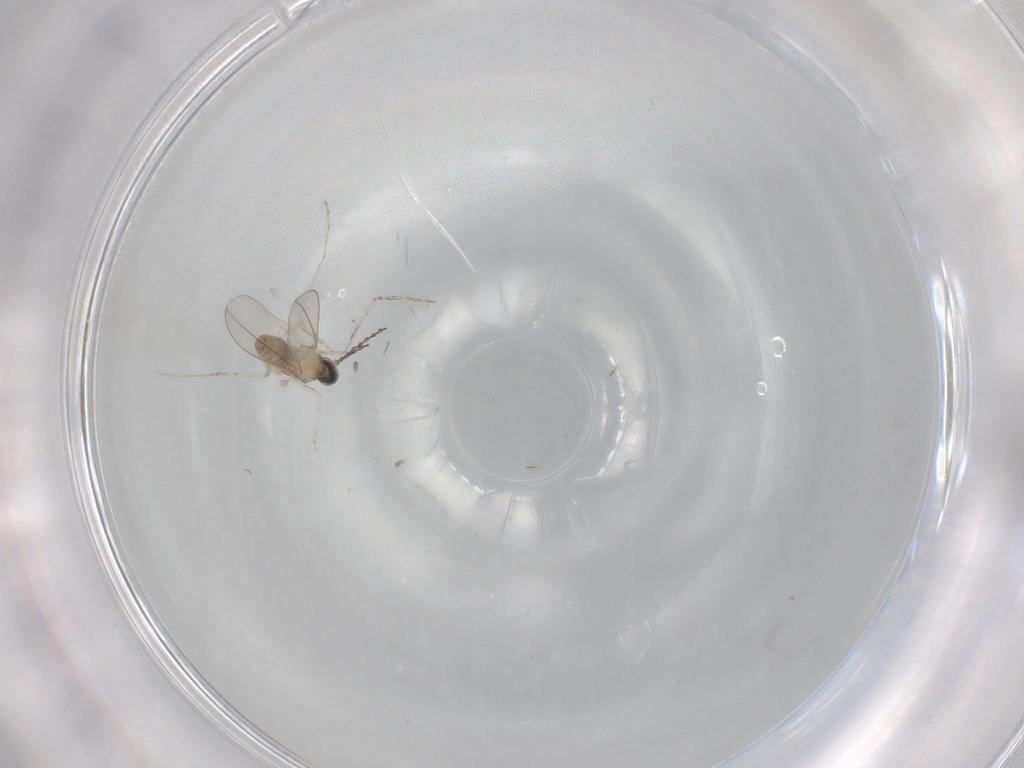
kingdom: Animalia
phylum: Arthropoda
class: Insecta
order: Diptera
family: Cecidomyiidae
